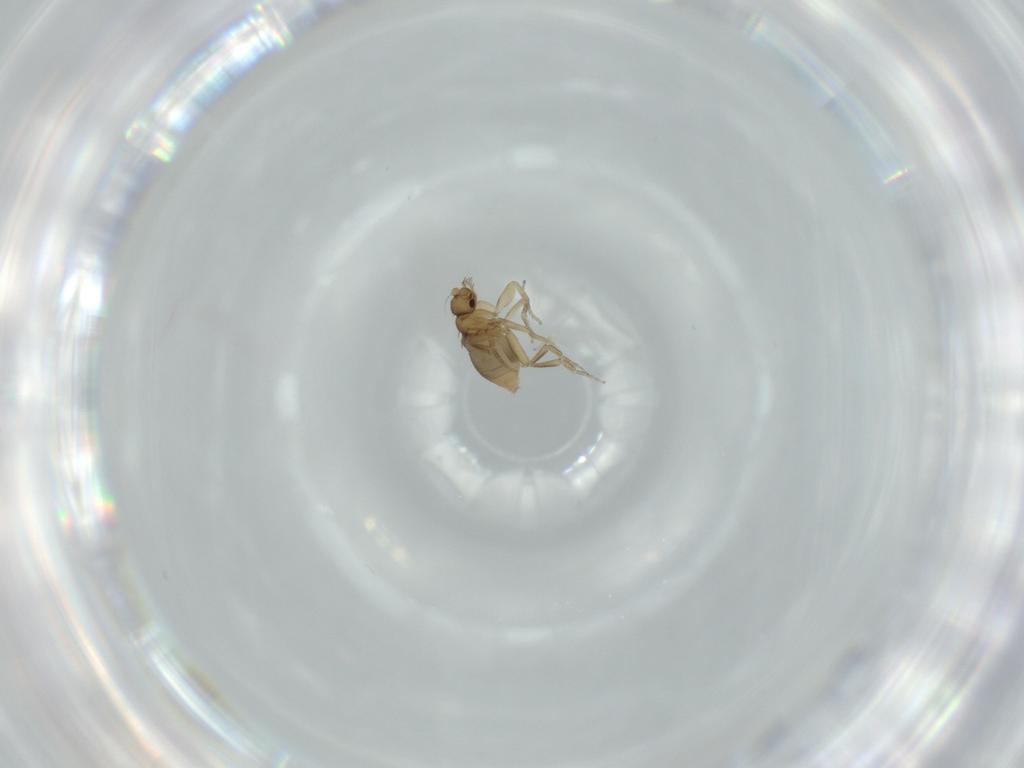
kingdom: Animalia
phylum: Arthropoda
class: Insecta
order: Diptera
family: Phoridae
